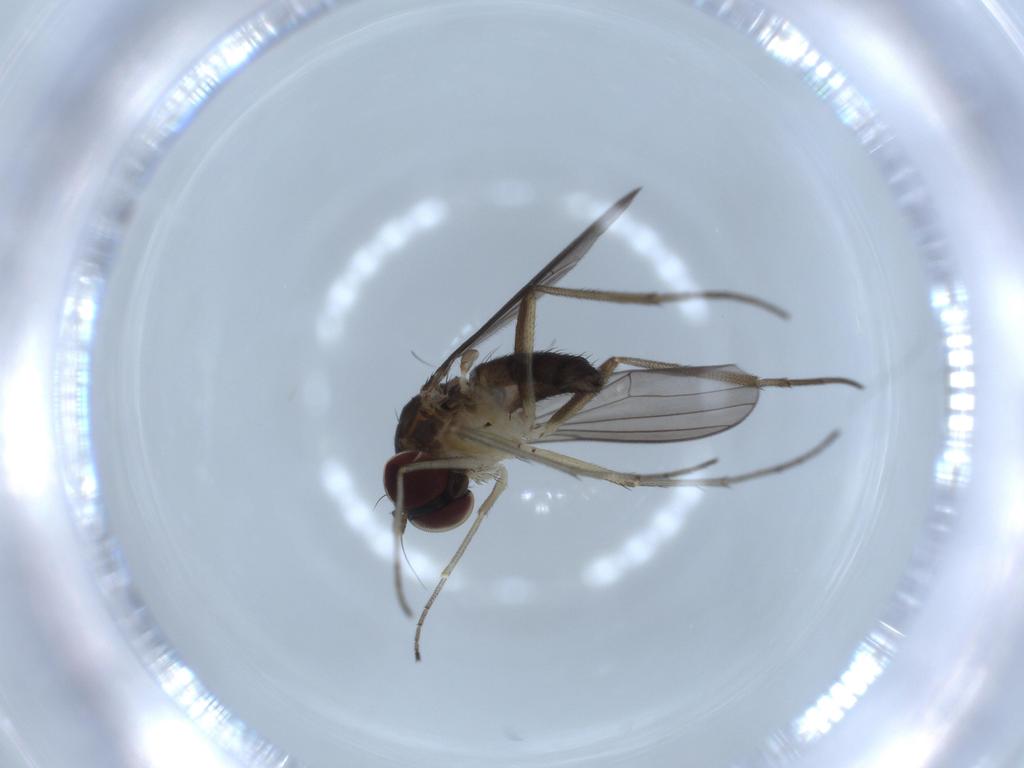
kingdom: Animalia
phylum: Arthropoda
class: Insecta
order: Diptera
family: Dolichopodidae
